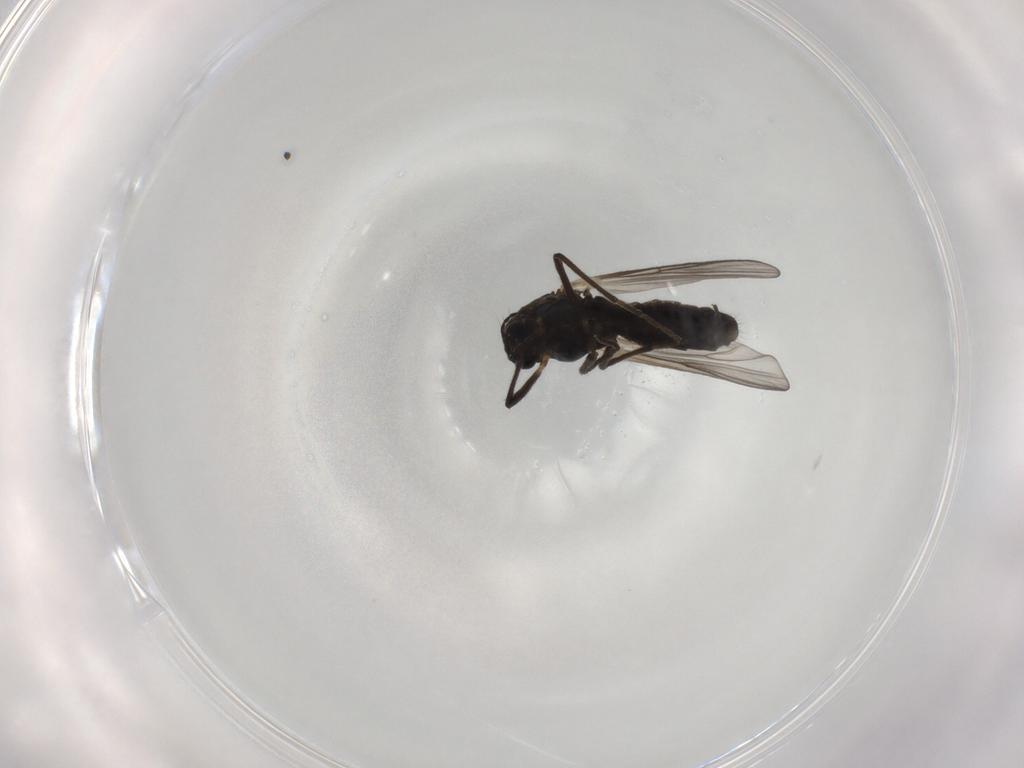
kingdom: Animalia
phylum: Arthropoda
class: Insecta
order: Diptera
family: Chironomidae
